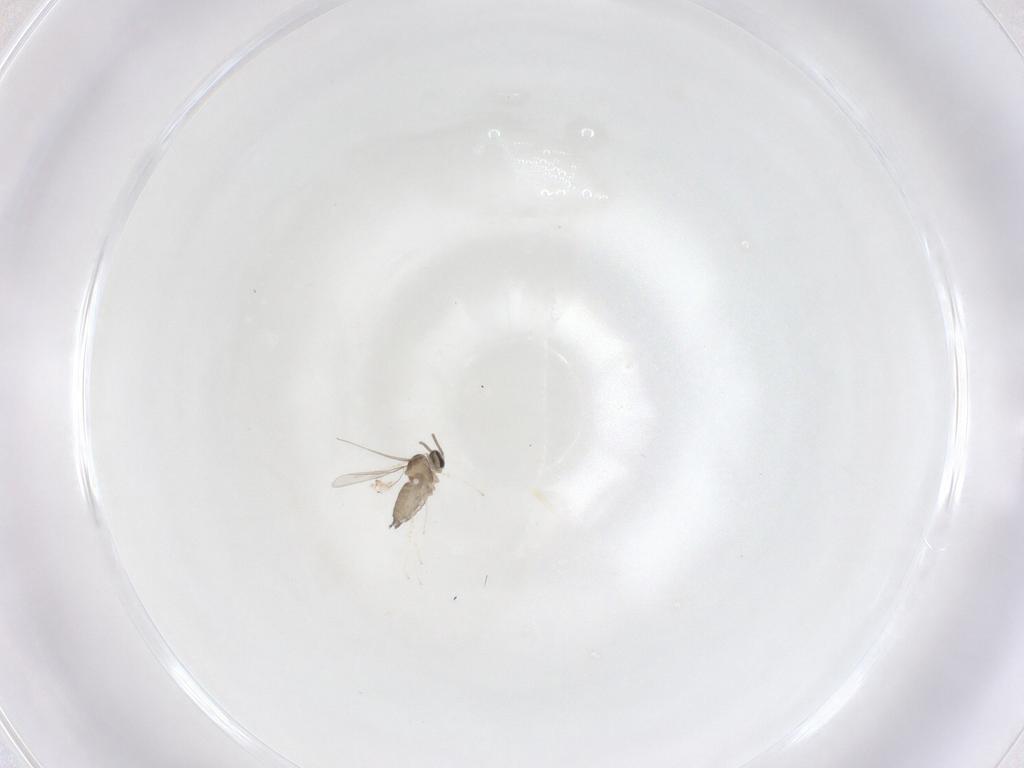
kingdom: Animalia
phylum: Arthropoda
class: Insecta
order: Diptera
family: Cecidomyiidae
